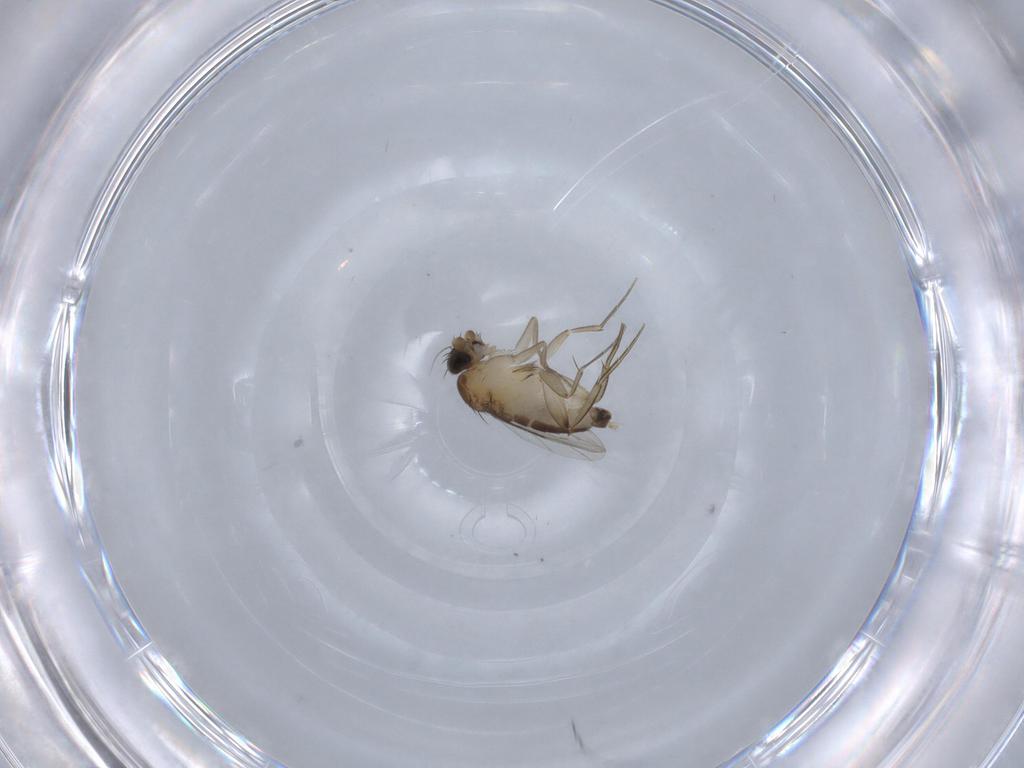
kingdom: Animalia
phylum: Arthropoda
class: Insecta
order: Diptera
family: Phoridae
